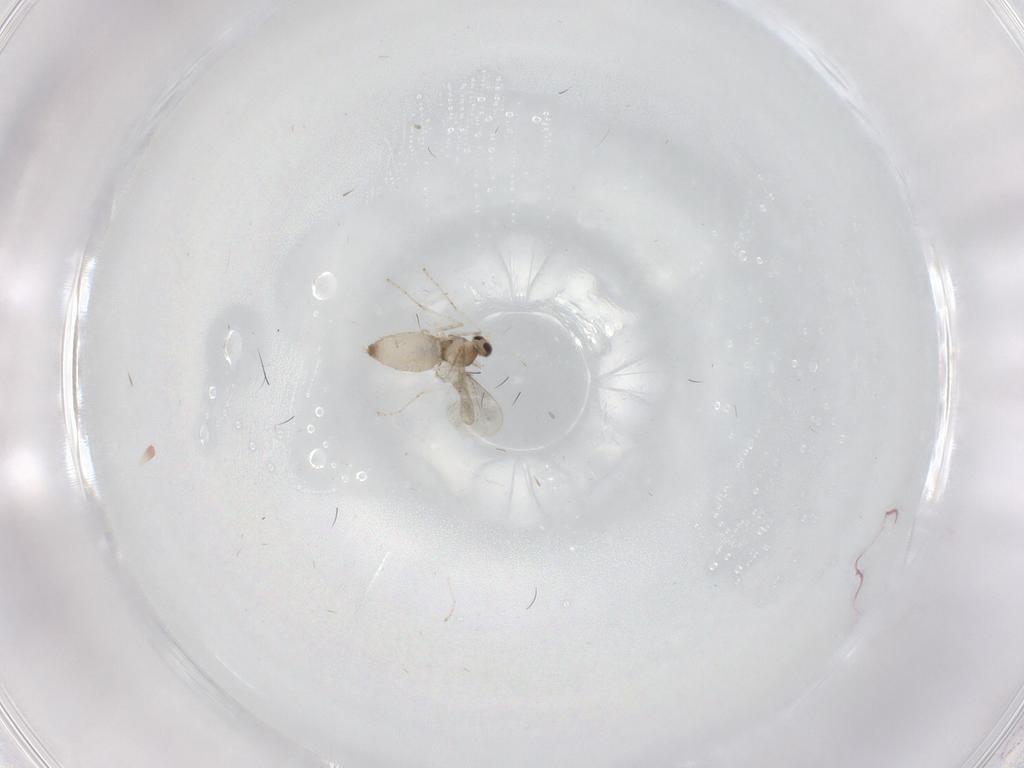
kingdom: Animalia
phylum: Arthropoda
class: Insecta
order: Diptera
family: Cecidomyiidae
